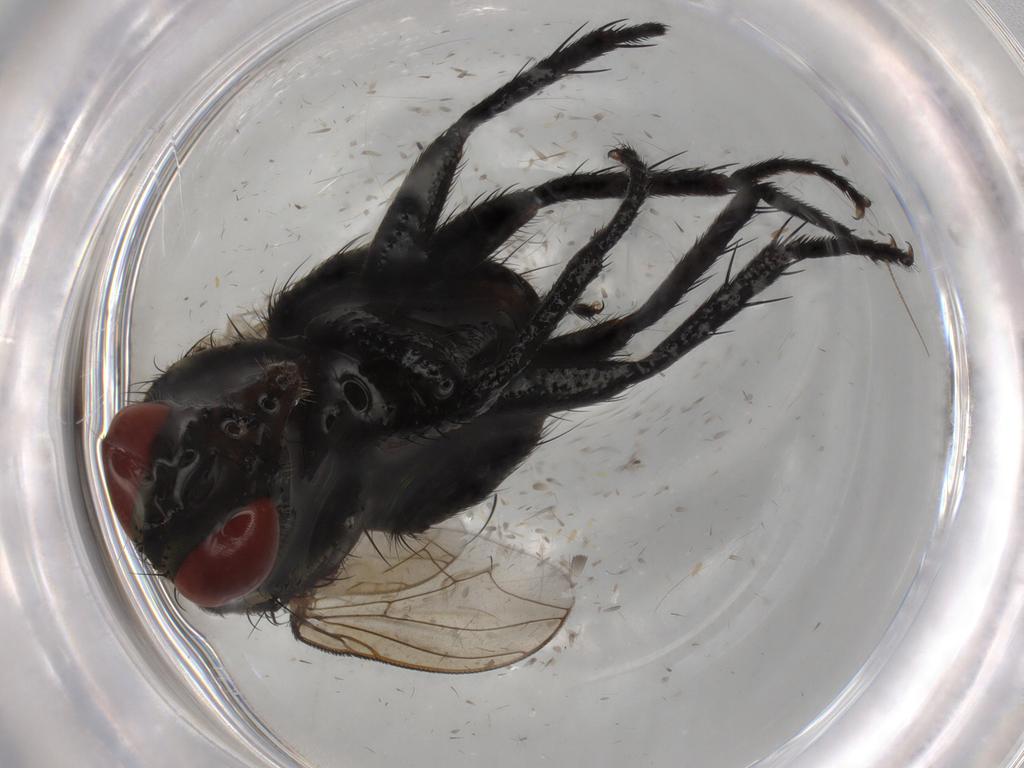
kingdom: Animalia
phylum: Arthropoda
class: Insecta
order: Diptera
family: Sarcophagidae
